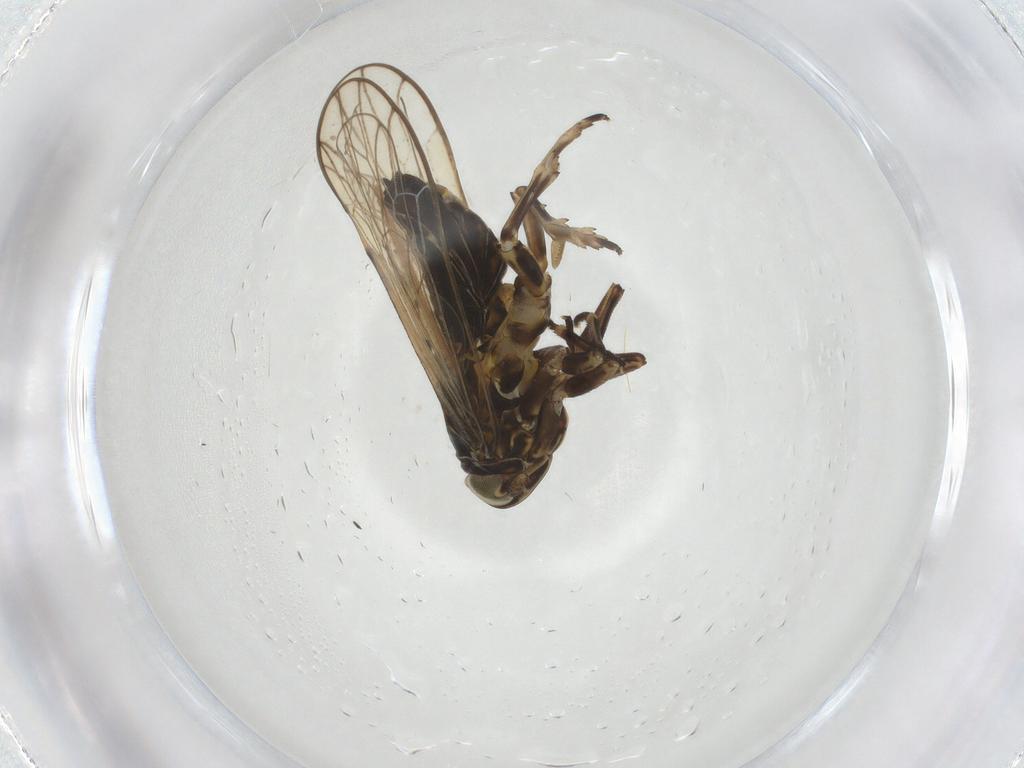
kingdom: Animalia
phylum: Arthropoda
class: Insecta
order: Hemiptera
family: Delphacidae
